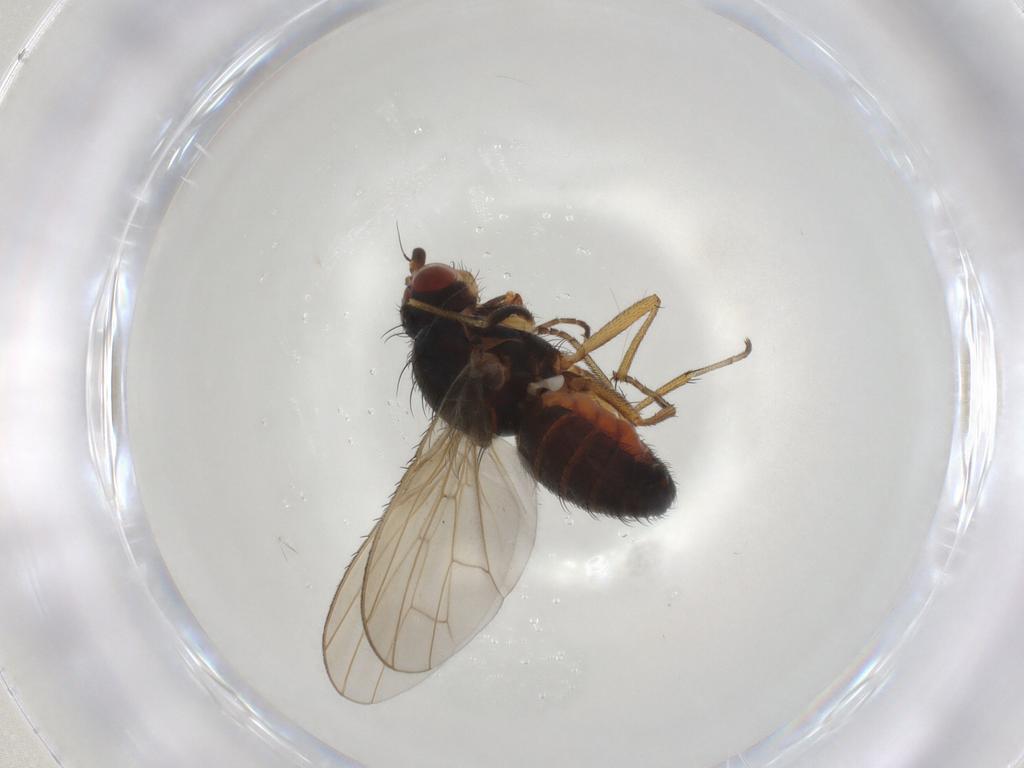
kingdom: Animalia
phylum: Arthropoda
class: Insecta
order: Diptera
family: Heleomyzidae
